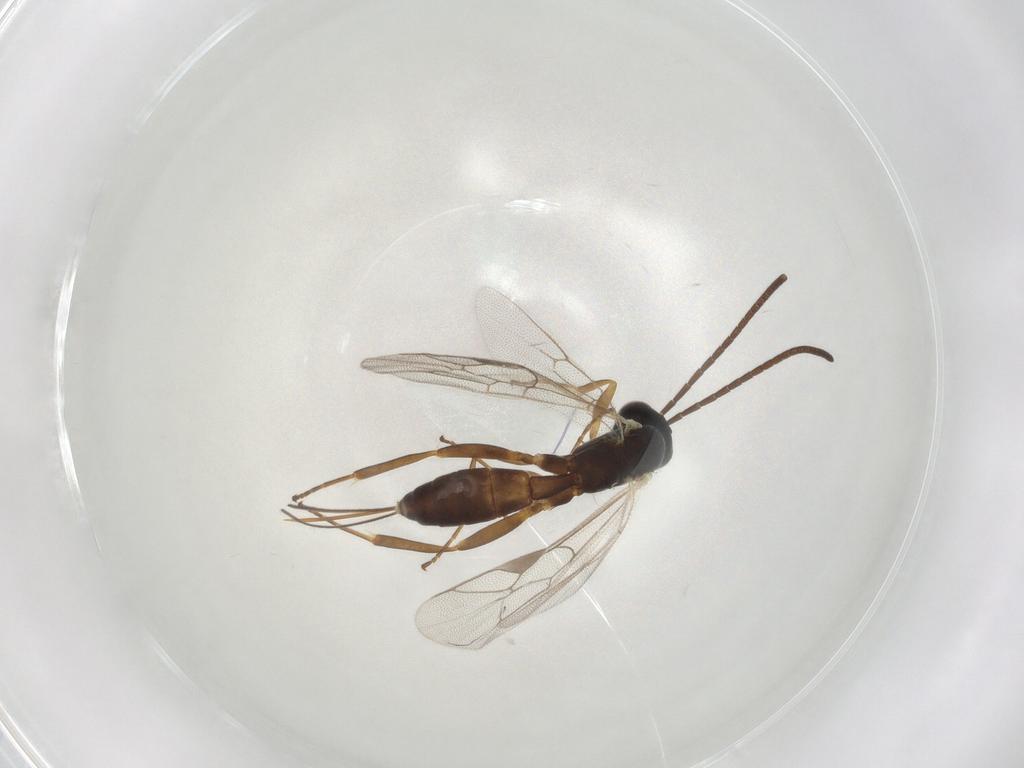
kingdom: Animalia
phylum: Arthropoda
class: Insecta
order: Hymenoptera
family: Ichneumonidae
